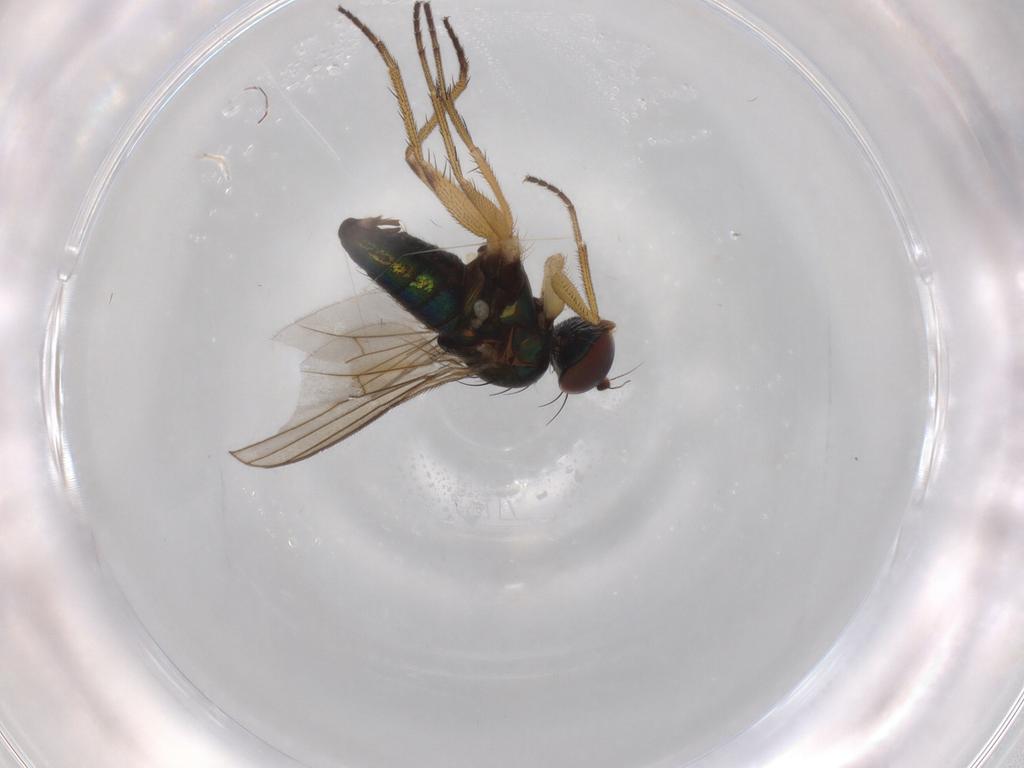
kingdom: Animalia
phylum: Arthropoda
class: Insecta
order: Diptera
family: Dolichopodidae
